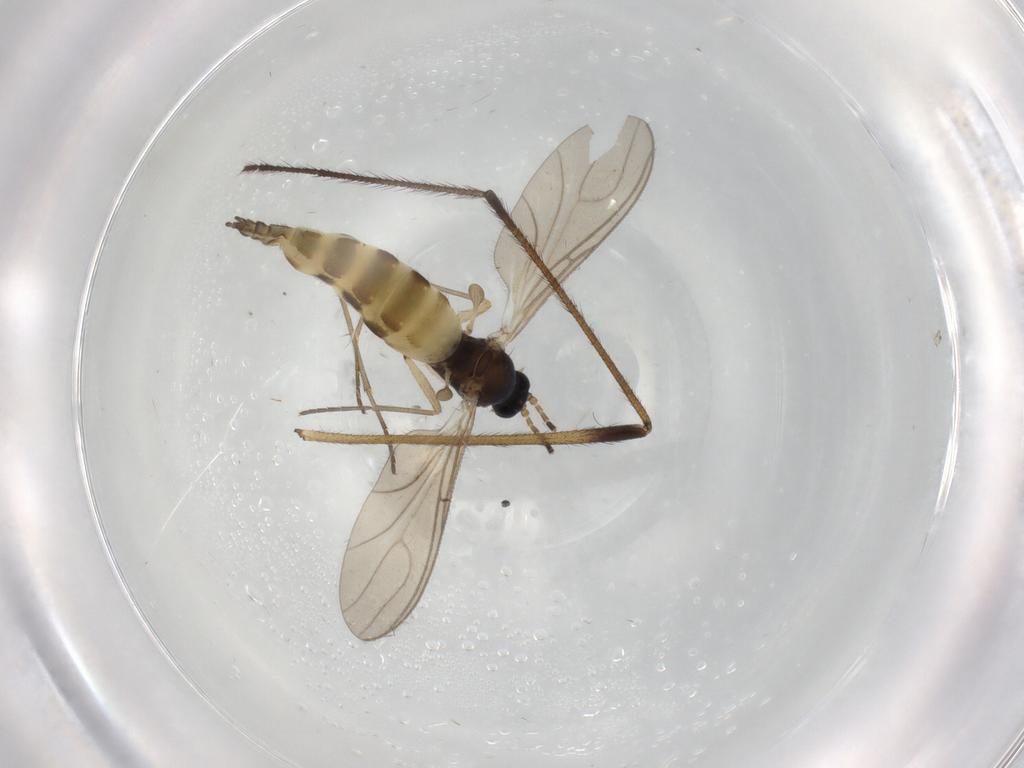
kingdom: Animalia
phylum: Arthropoda
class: Insecta
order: Diptera
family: Sciaridae
